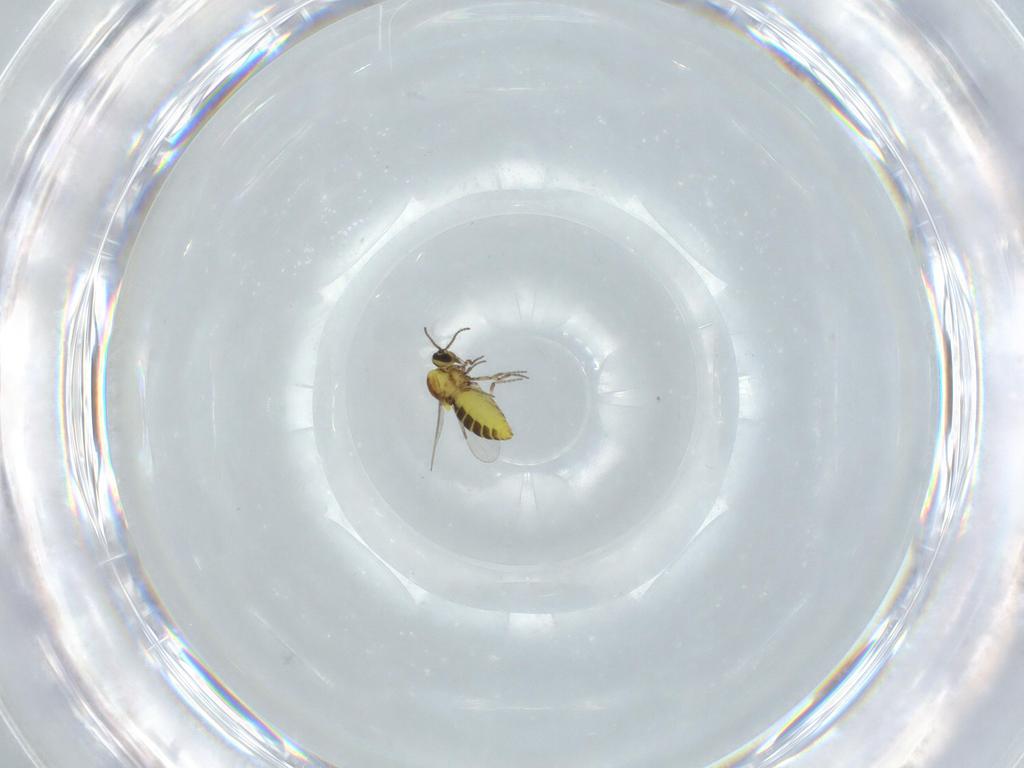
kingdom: Animalia
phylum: Arthropoda
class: Insecta
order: Diptera
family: Ceratopogonidae
